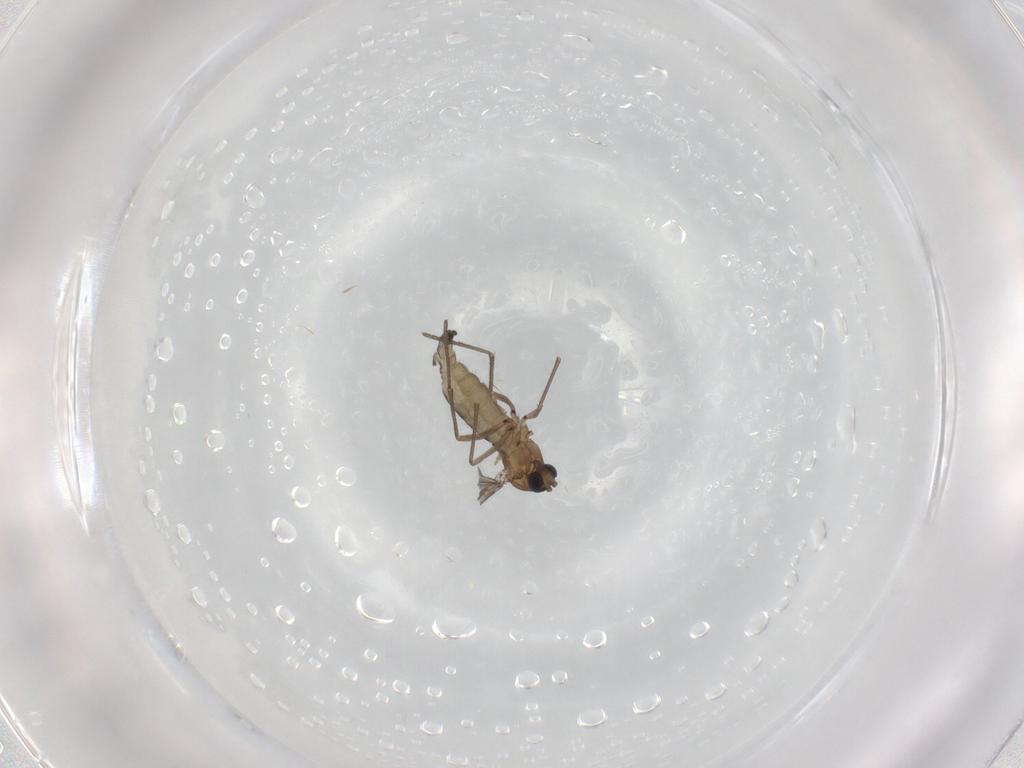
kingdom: Animalia
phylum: Arthropoda
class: Insecta
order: Diptera
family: Sciaridae
